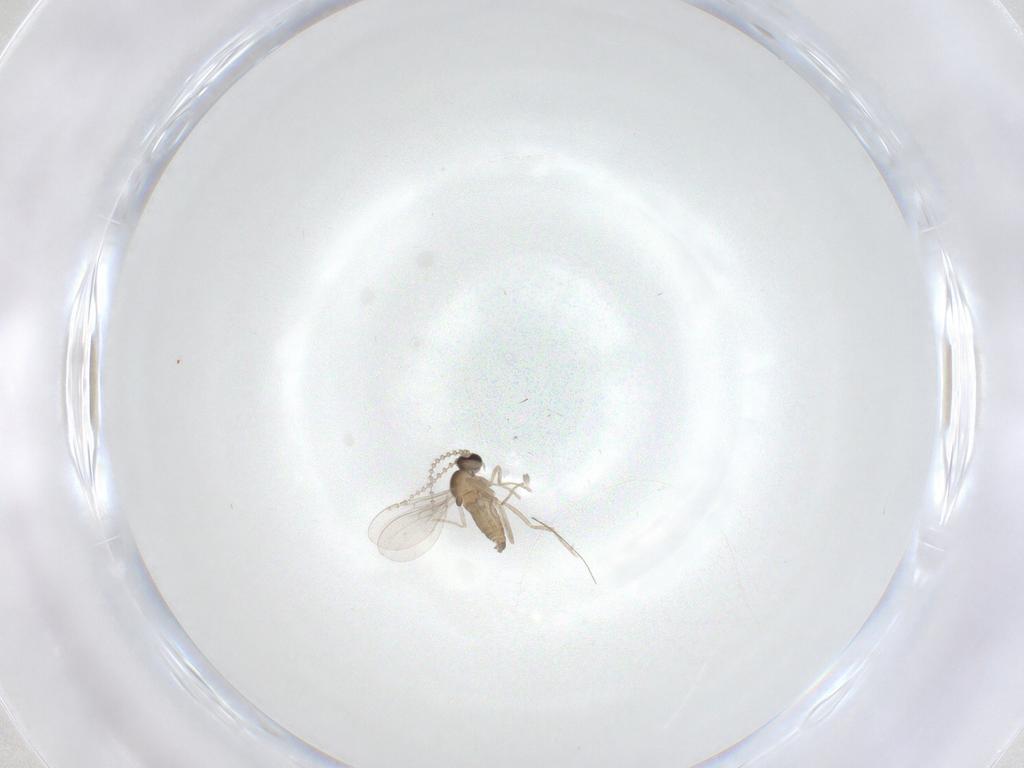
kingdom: Animalia
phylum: Arthropoda
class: Insecta
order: Diptera
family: Cecidomyiidae
